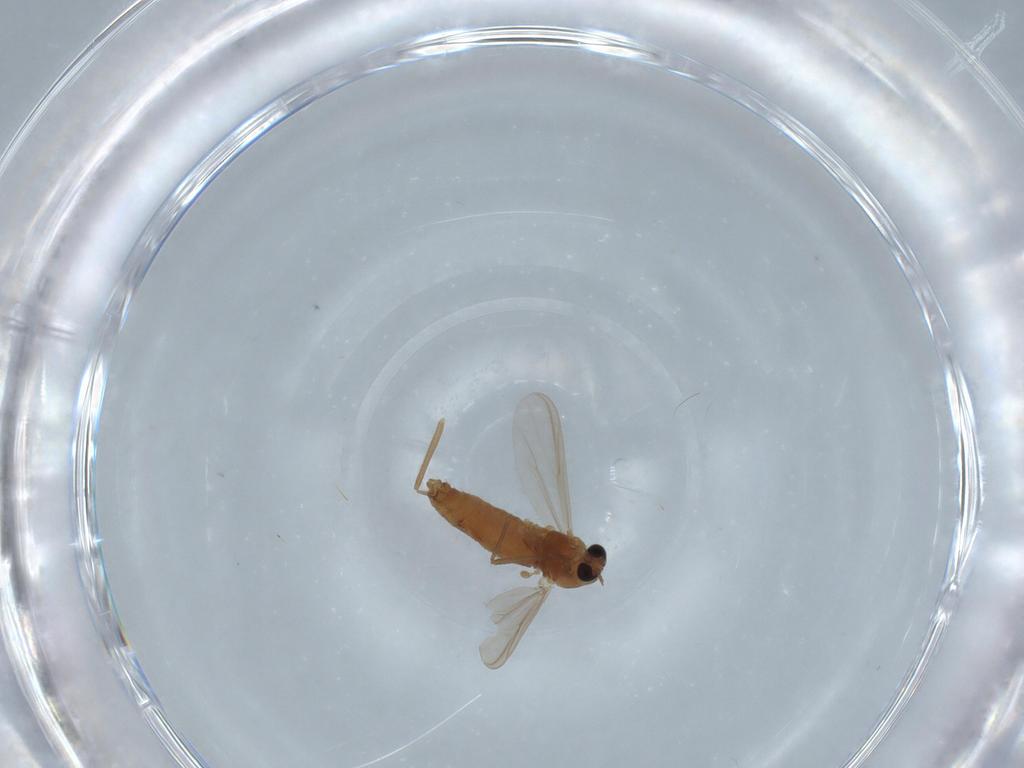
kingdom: Animalia
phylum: Arthropoda
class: Insecta
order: Diptera
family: Chironomidae
